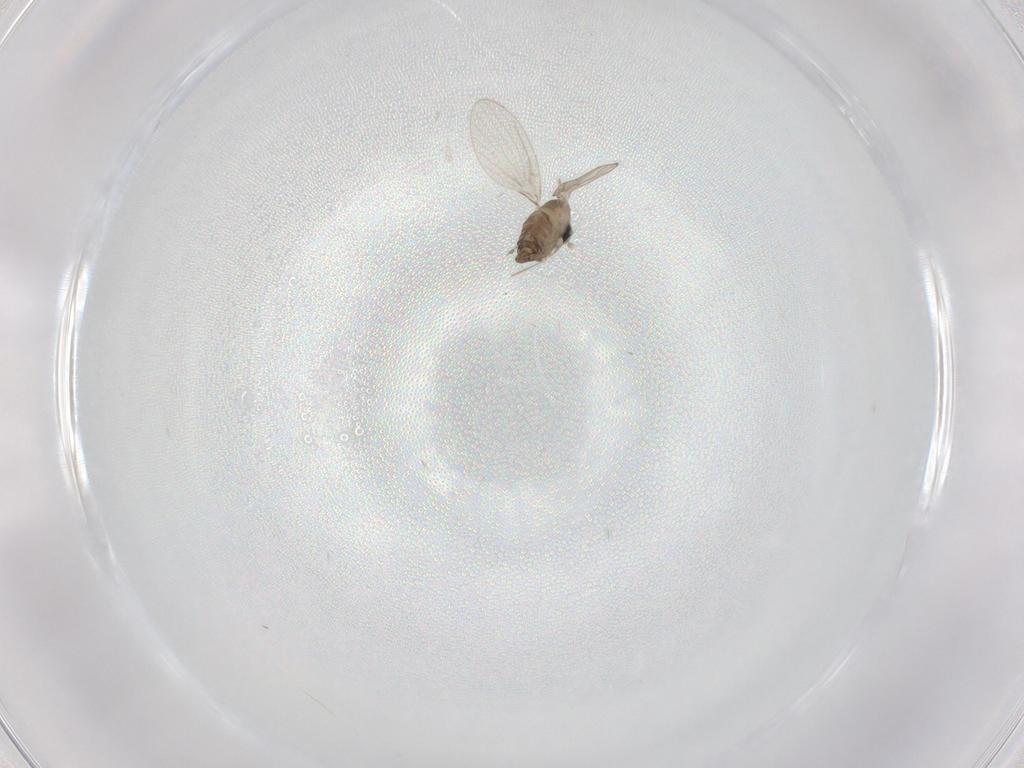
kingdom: Animalia
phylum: Arthropoda
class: Insecta
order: Diptera
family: Psychodidae
